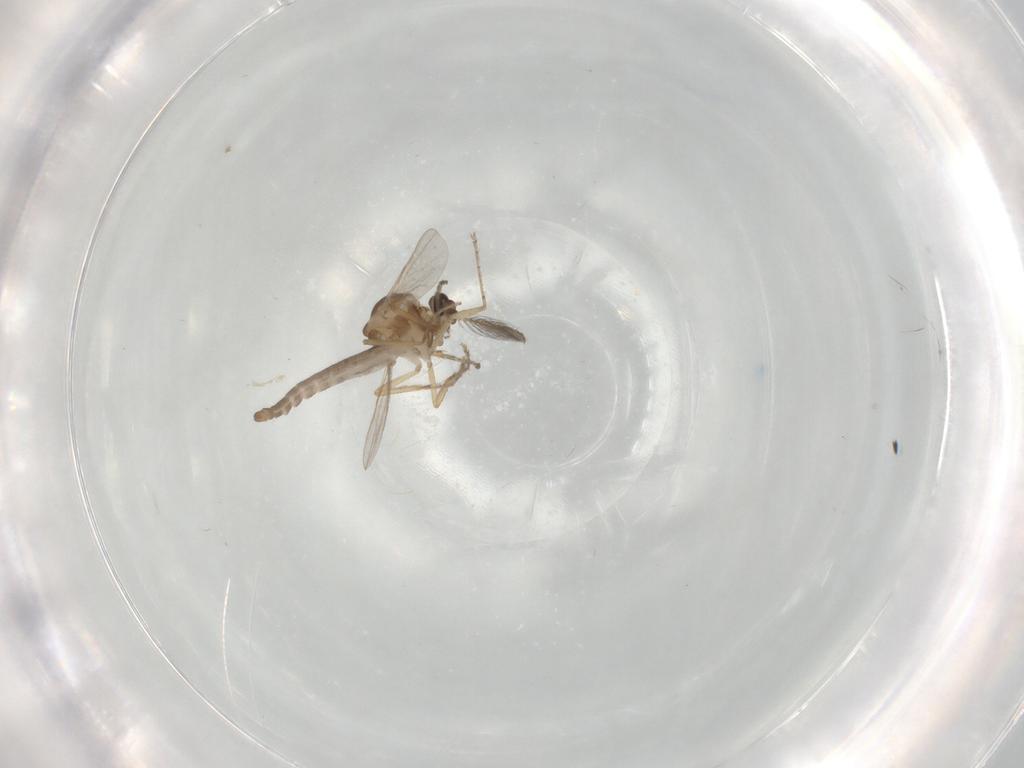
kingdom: Animalia
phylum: Arthropoda
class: Insecta
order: Diptera
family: Ceratopogonidae
